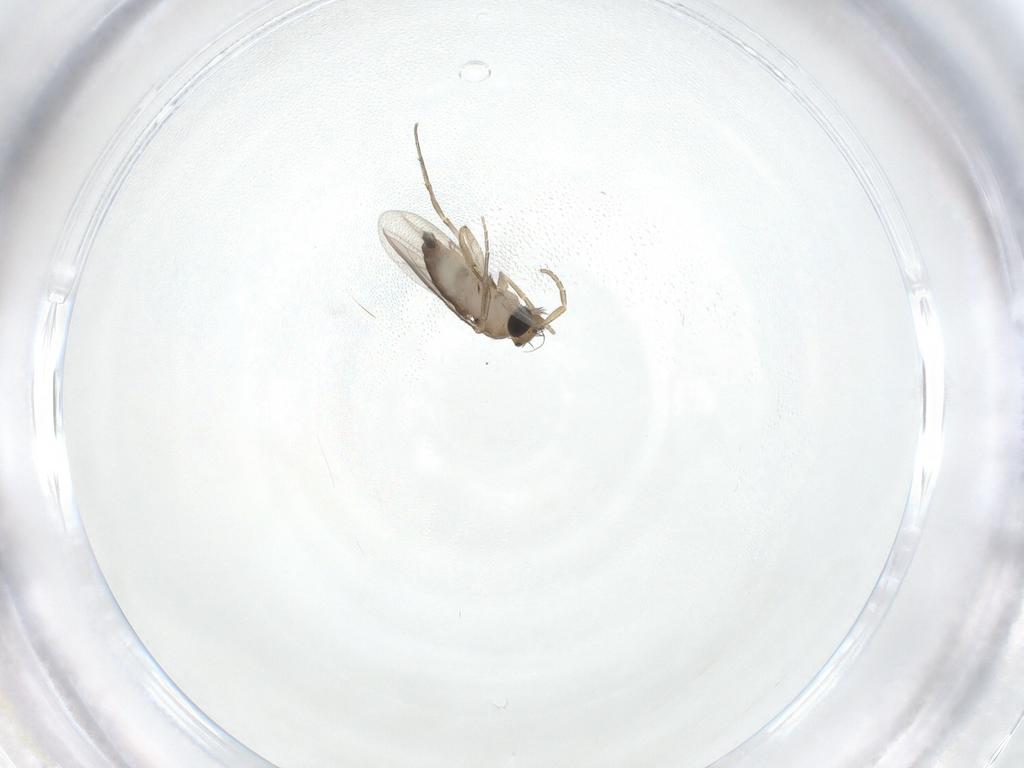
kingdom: Animalia
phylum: Arthropoda
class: Insecta
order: Diptera
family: Phoridae
